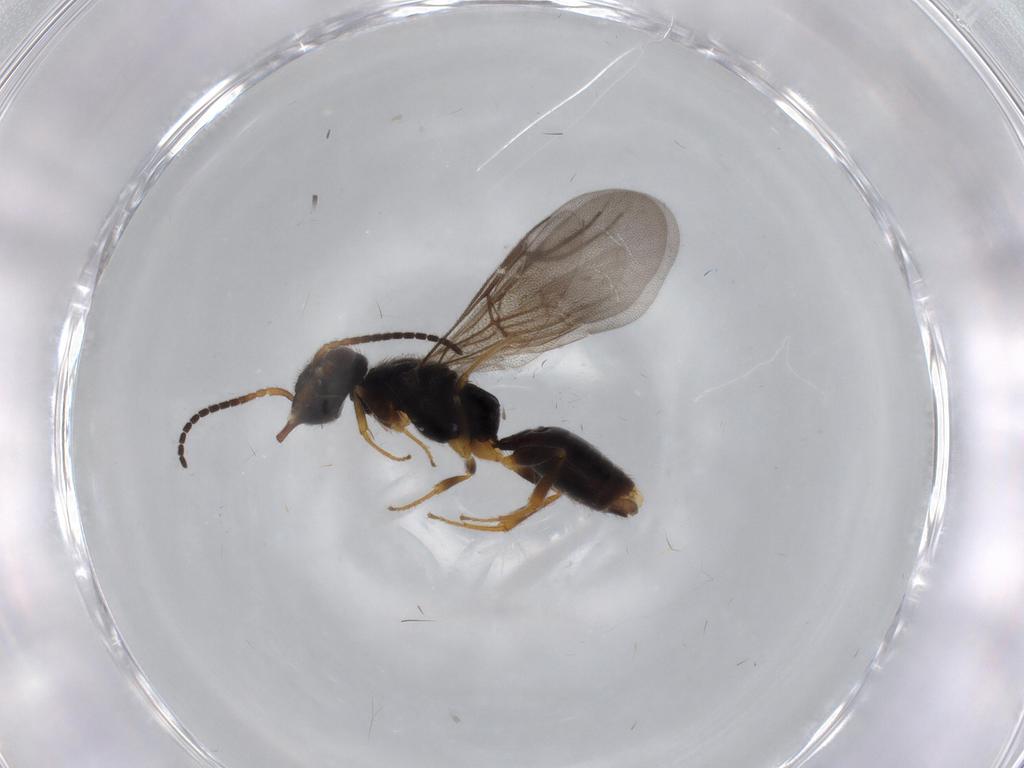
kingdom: Animalia
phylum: Arthropoda
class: Insecta
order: Hymenoptera
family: Bethylidae
